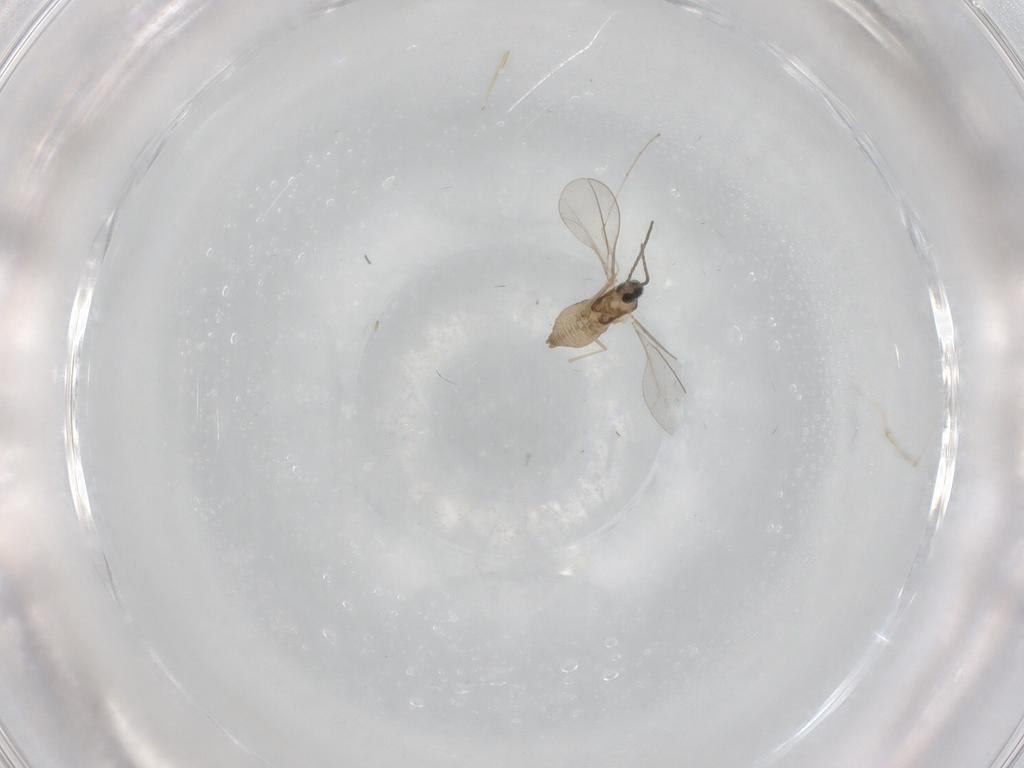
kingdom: Animalia
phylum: Arthropoda
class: Insecta
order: Diptera
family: Cecidomyiidae
